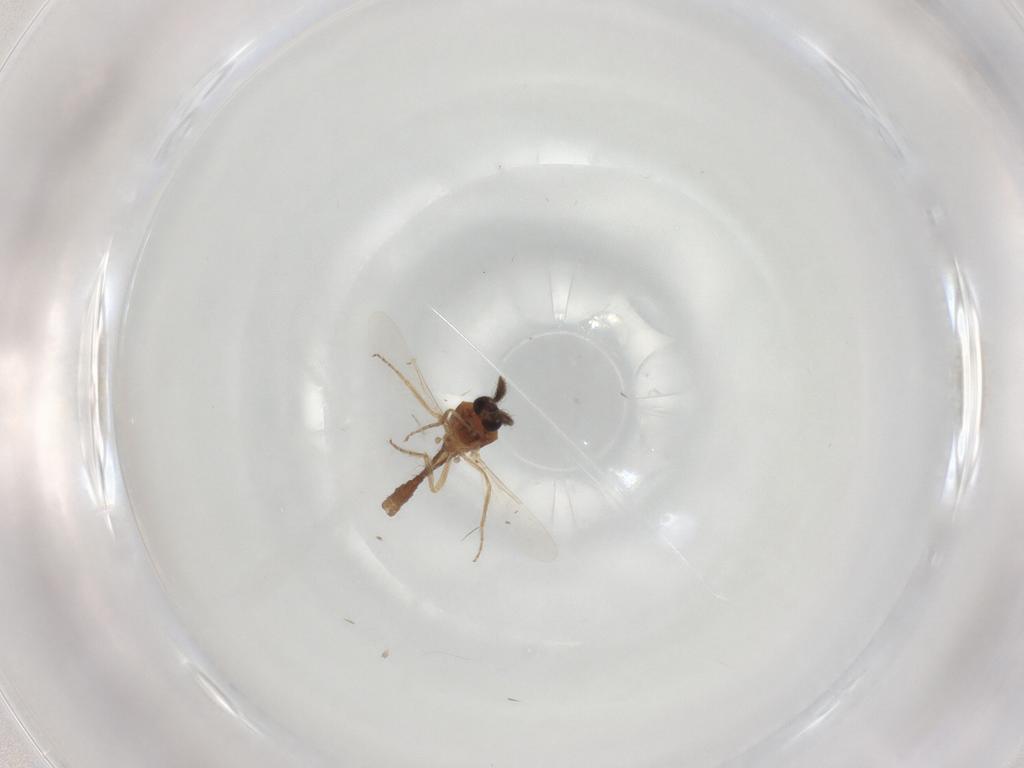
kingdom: Animalia
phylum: Arthropoda
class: Insecta
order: Diptera
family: Ceratopogonidae
